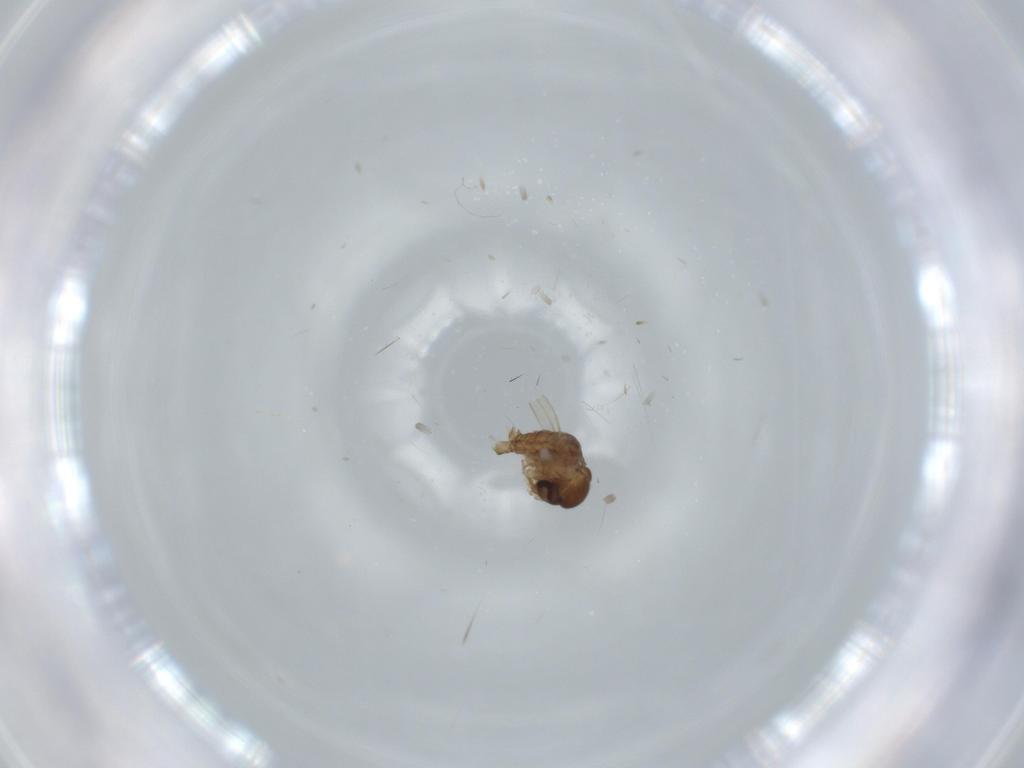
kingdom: Animalia
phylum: Arthropoda
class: Insecta
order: Diptera
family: Psychodidae
